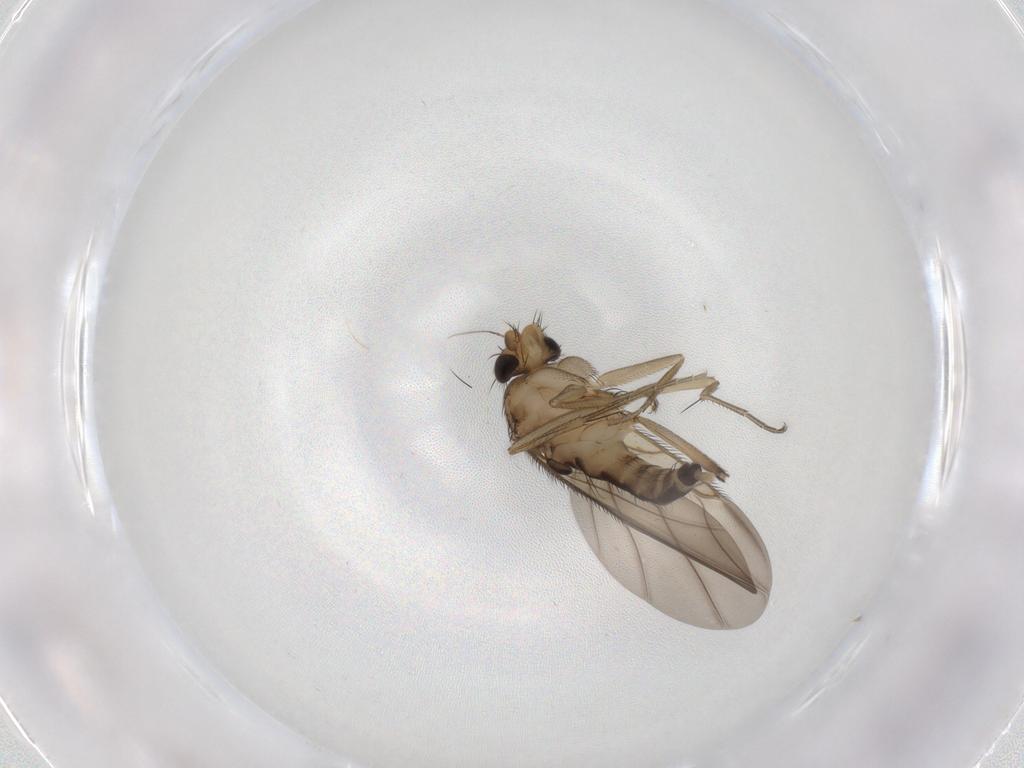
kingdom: Animalia
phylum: Arthropoda
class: Insecta
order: Diptera
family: Phoridae
